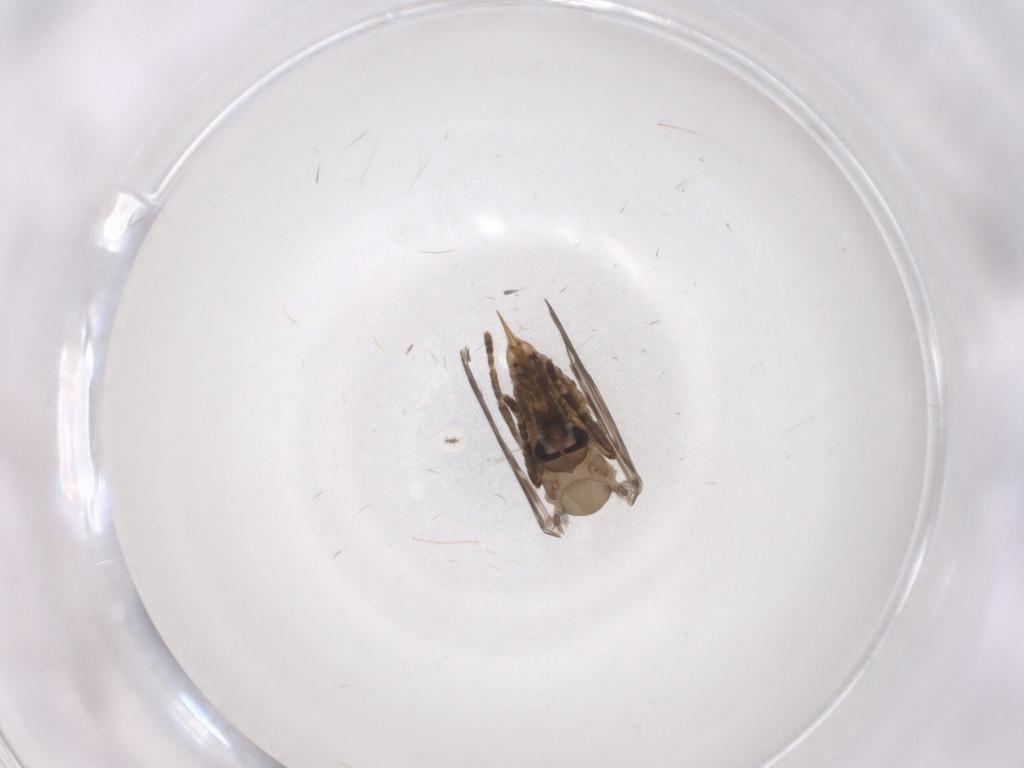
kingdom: Animalia
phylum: Arthropoda
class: Insecta
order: Diptera
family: Psychodidae
